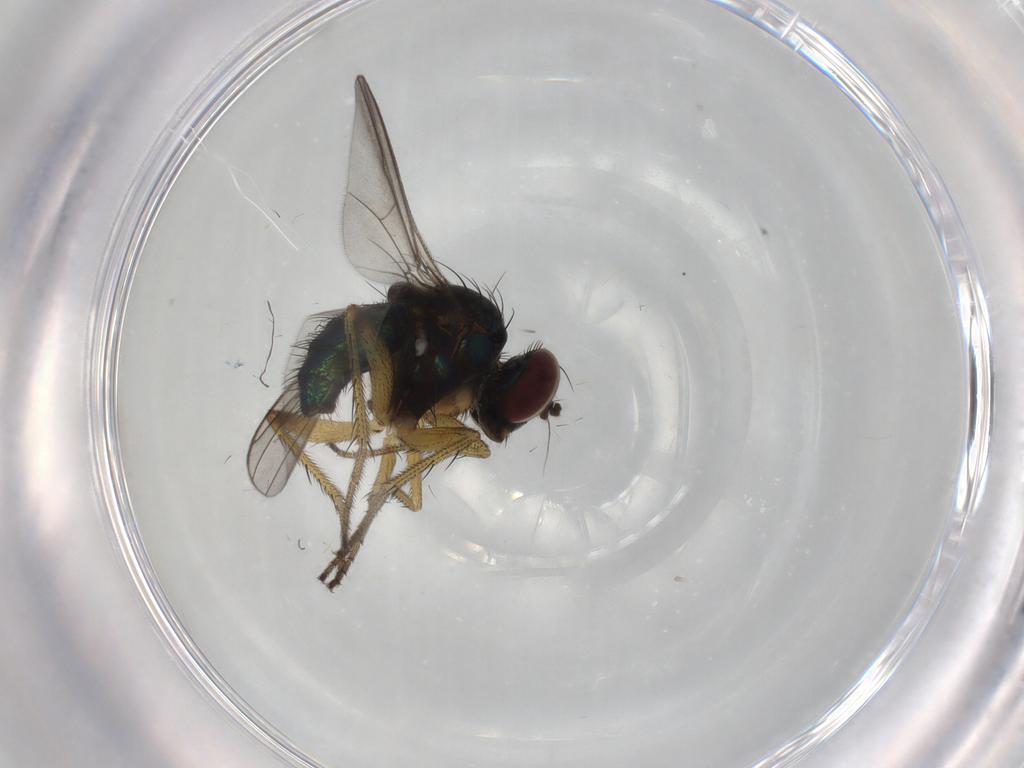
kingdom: Animalia
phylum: Arthropoda
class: Insecta
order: Diptera
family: Dolichopodidae
